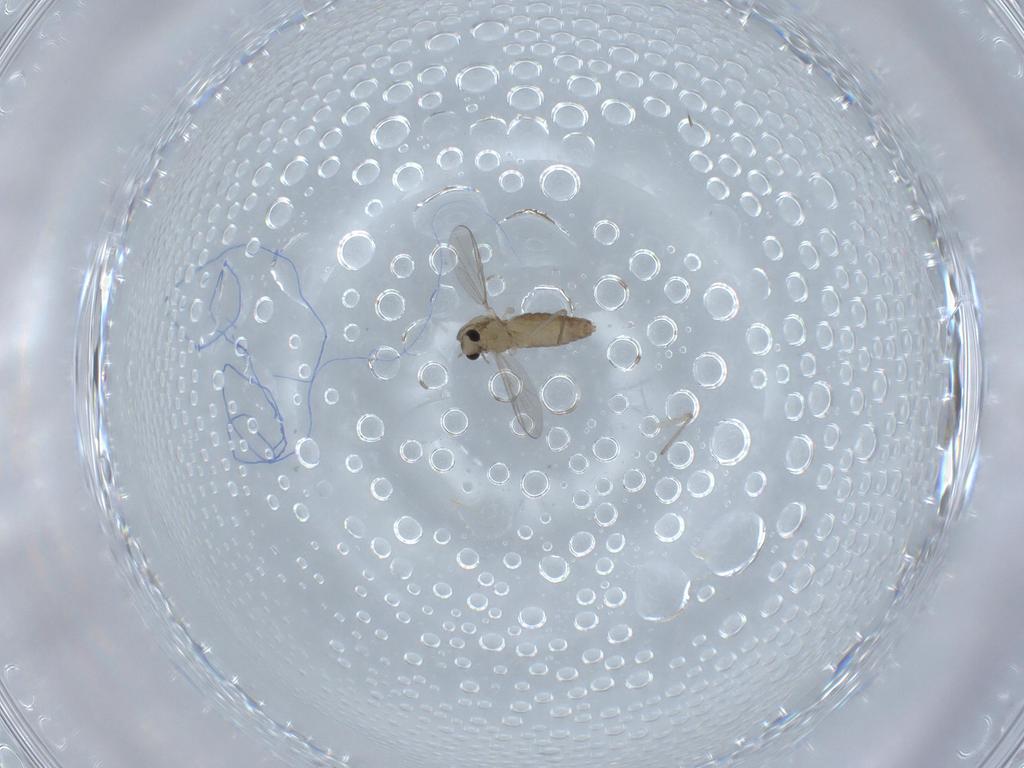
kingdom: Animalia
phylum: Arthropoda
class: Insecta
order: Diptera
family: Chironomidae
